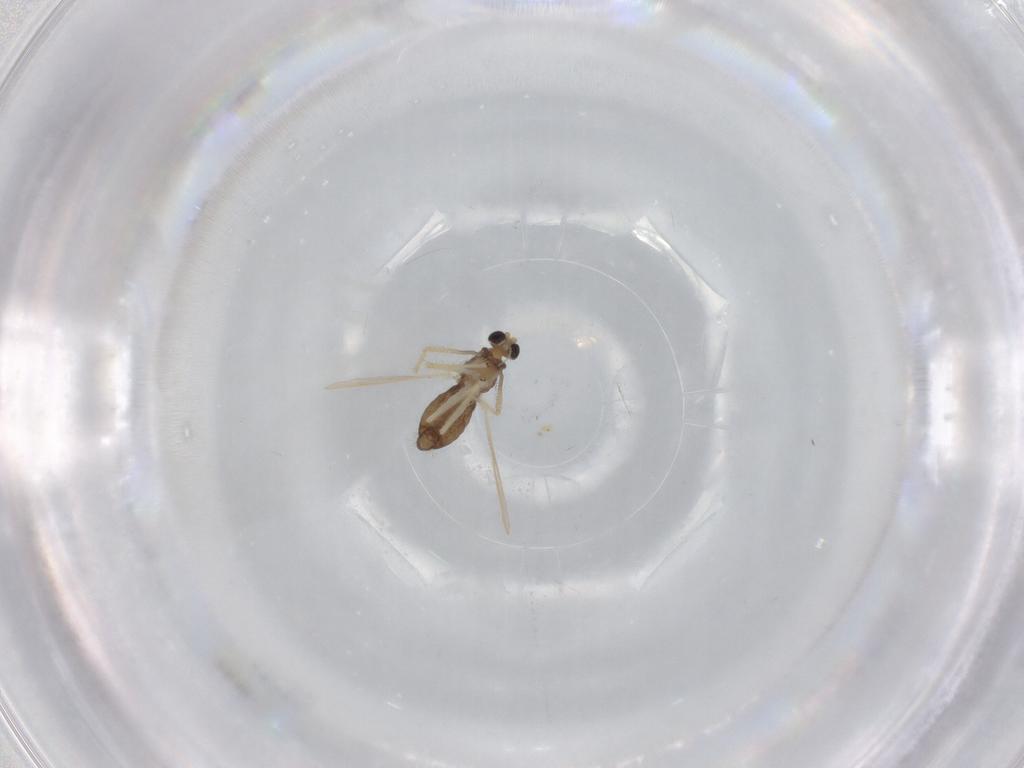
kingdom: Animalia
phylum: Arthropoda
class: Insecta
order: Diptera
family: Chironomidae
